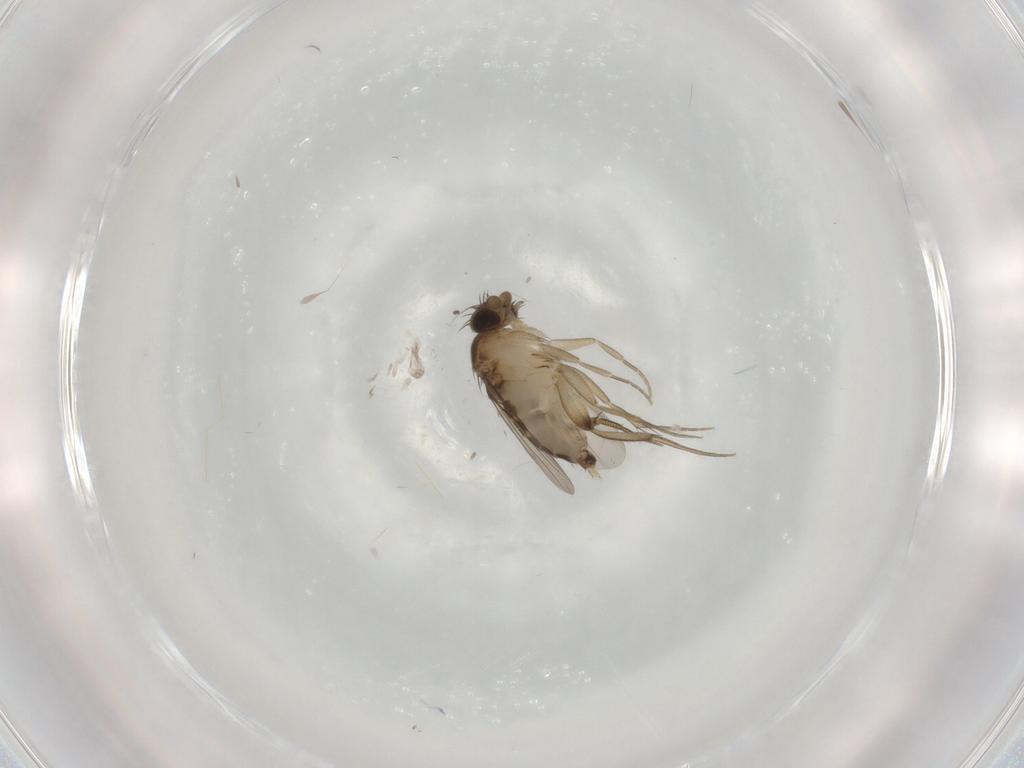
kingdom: Animalia
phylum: Arthropoda
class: Insecta
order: Diptera
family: Phoridae
